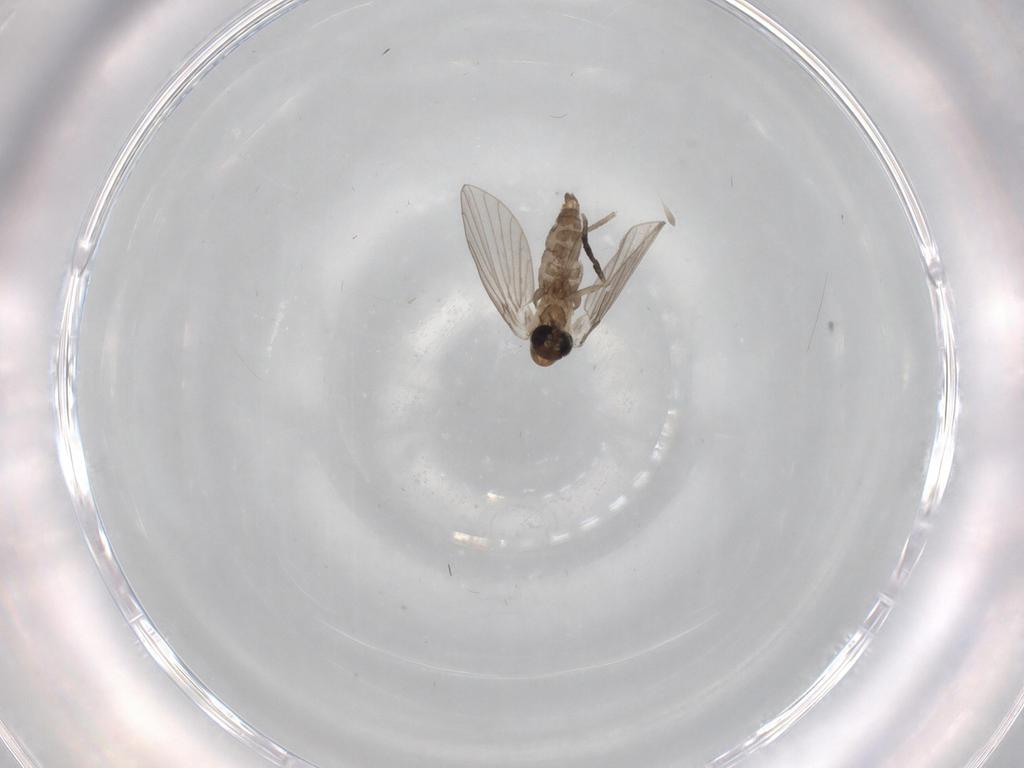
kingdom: Animalia
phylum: Arthropoda
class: Insecta
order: Diptera
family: Psychodidae
